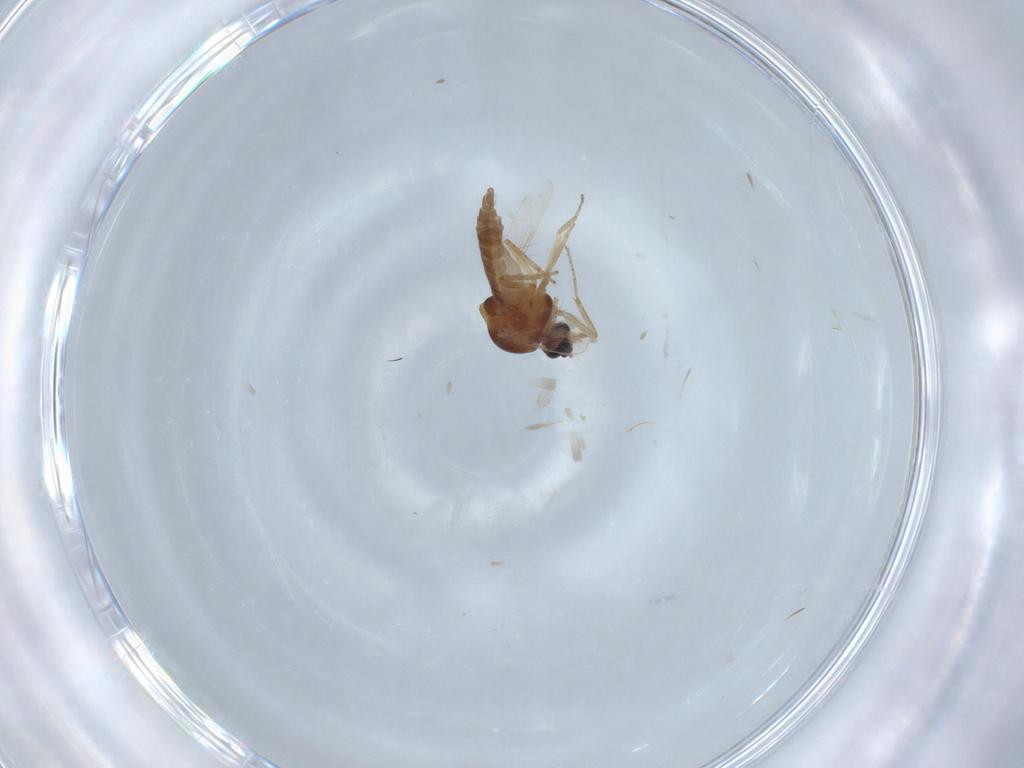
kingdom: Animalia
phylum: Arthropoda
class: Insecta
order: Diptera
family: Ceratopogonidae
